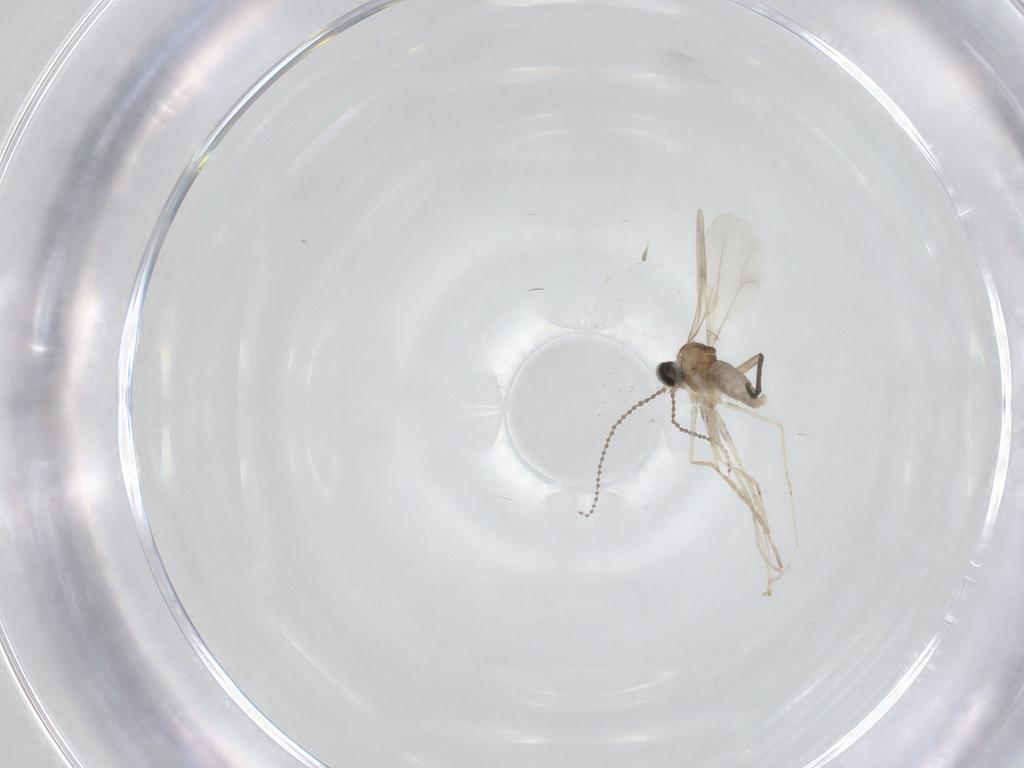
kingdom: Animalia
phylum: Arthropoda
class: Insecta
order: Diptera
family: Cecidomyiidae
